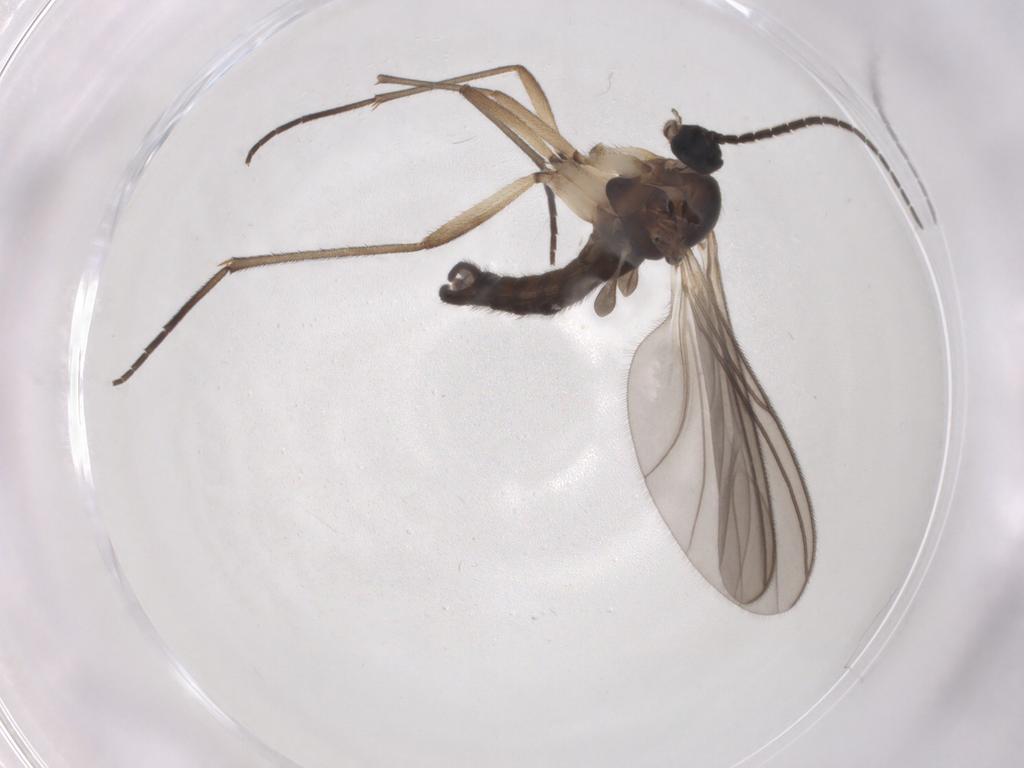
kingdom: Animalia
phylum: Arthropoda
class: Insecta
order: Diptera
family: Sciaridae
